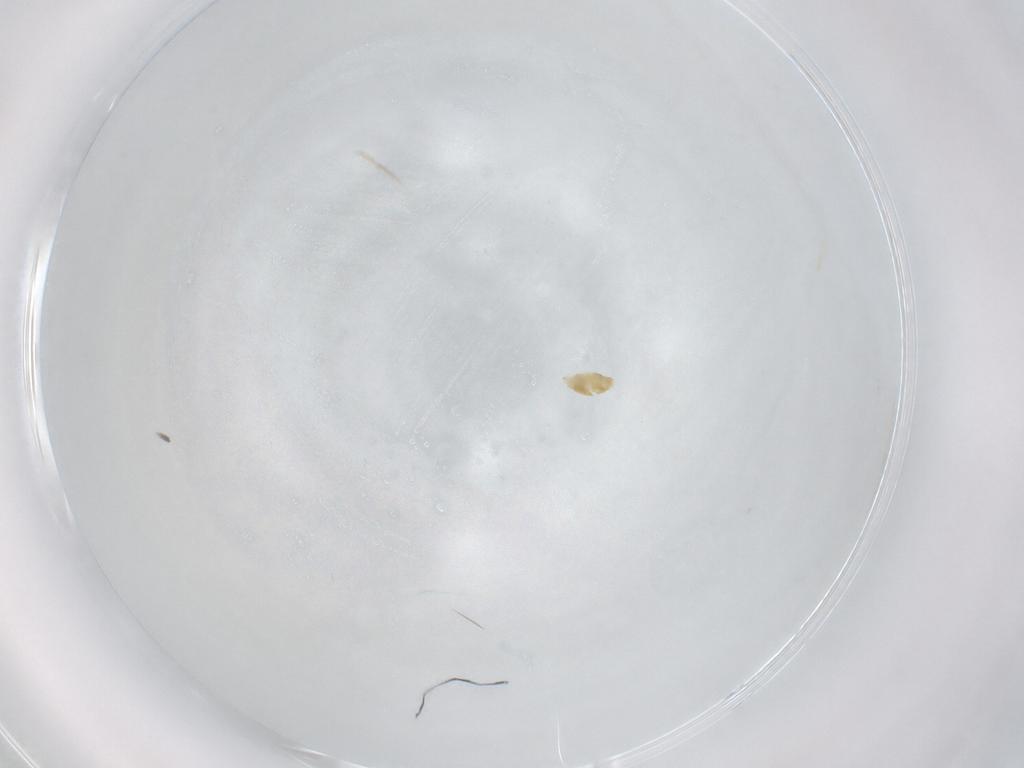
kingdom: Animalia
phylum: Arthropoda
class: Arachnida
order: Trombidiformes
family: Eupodidae
